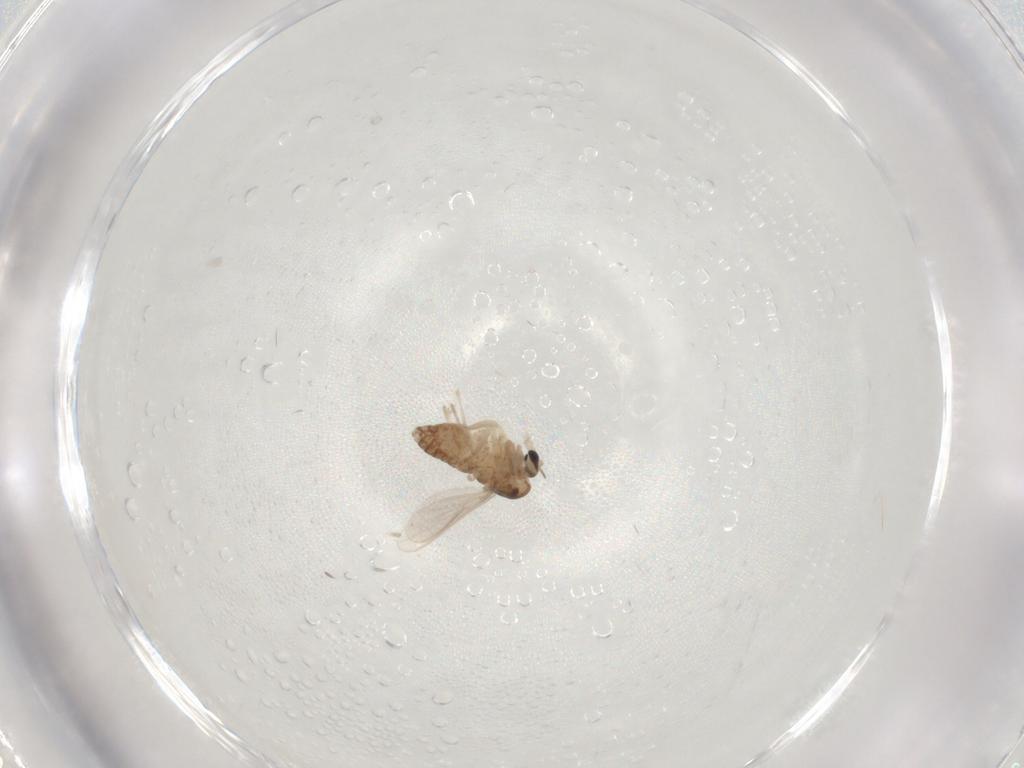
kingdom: Animalia
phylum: Arthropoda
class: Insecta
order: Diptera
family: Chironomidae
